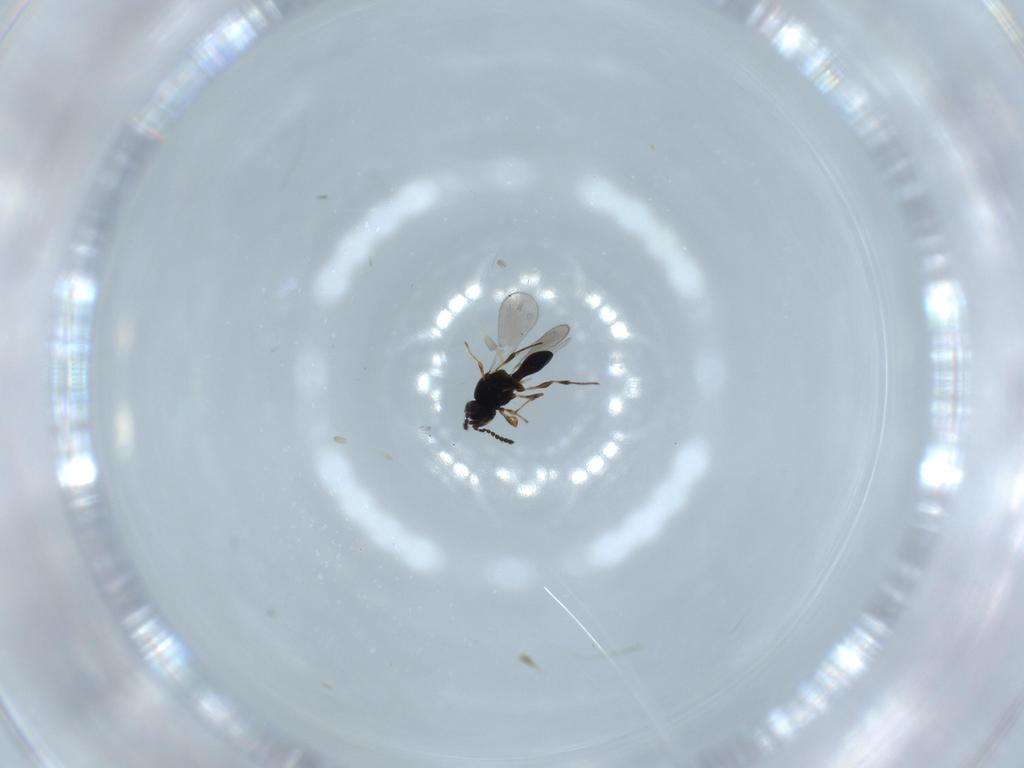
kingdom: Animalia
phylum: Arthropoda
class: Insecta
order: Hymenoptera
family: Platygastridae
